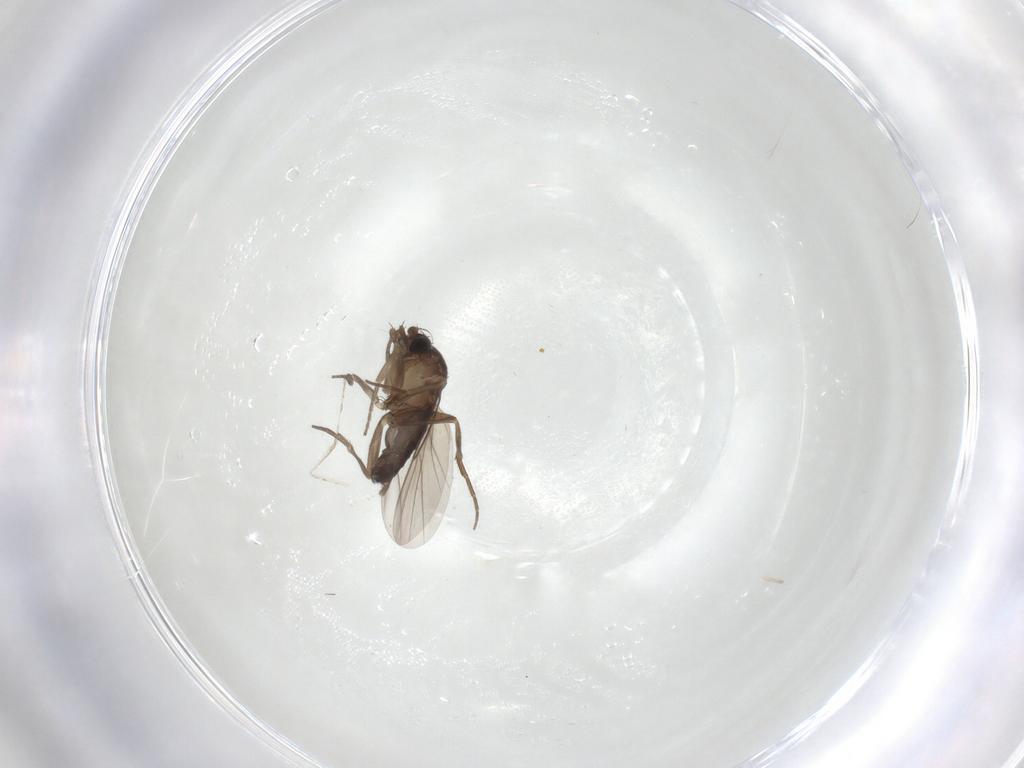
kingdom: Animalia
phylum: Arthropoda
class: Insecta
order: Diptera
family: Phoridae
